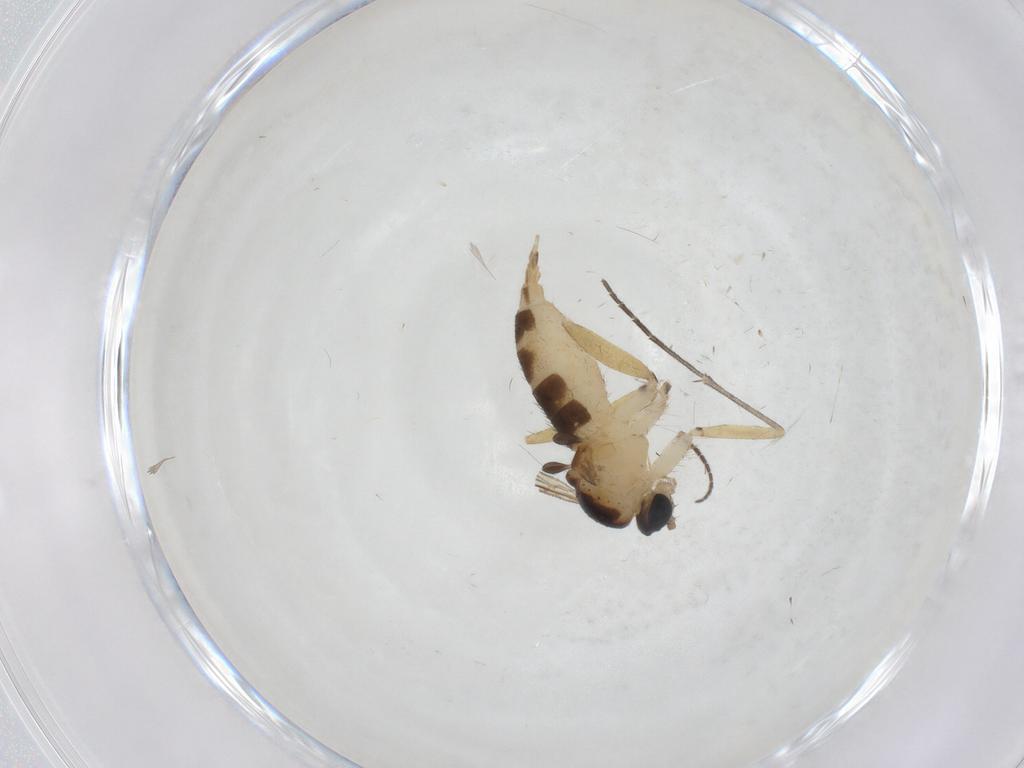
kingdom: Animalia
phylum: Arthropoda
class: Insecta
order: Diptera
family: Sciaridae
